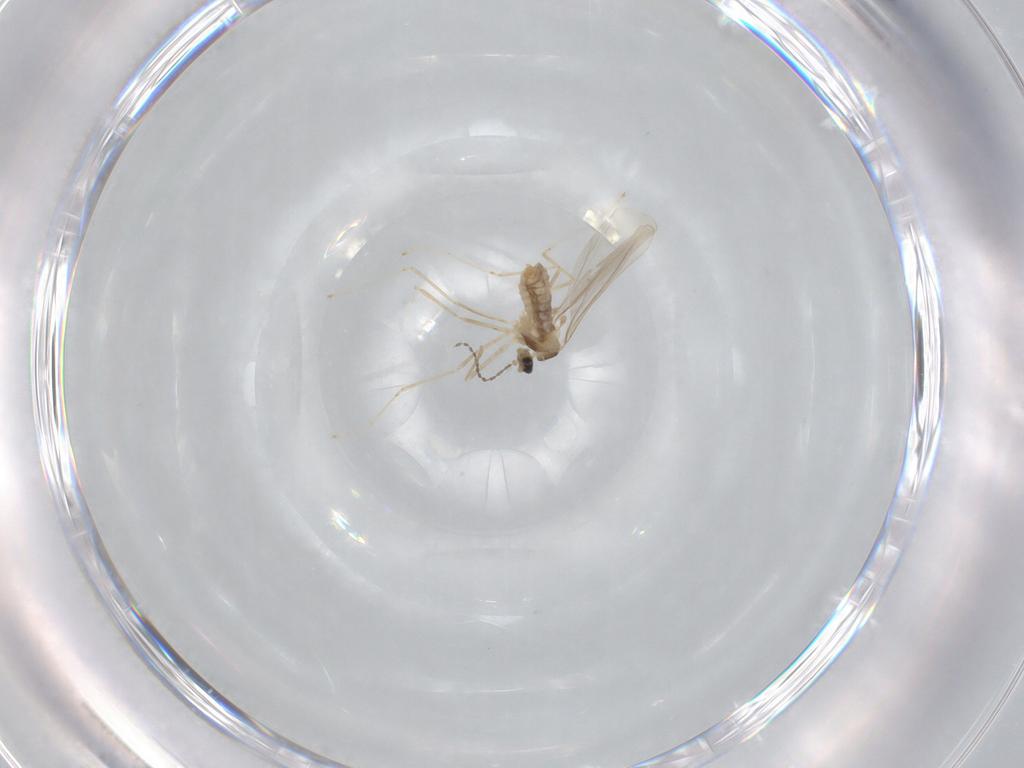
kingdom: Animalia
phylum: Arthropoda
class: Insecta
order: Diptera
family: Cecidomyiidae
